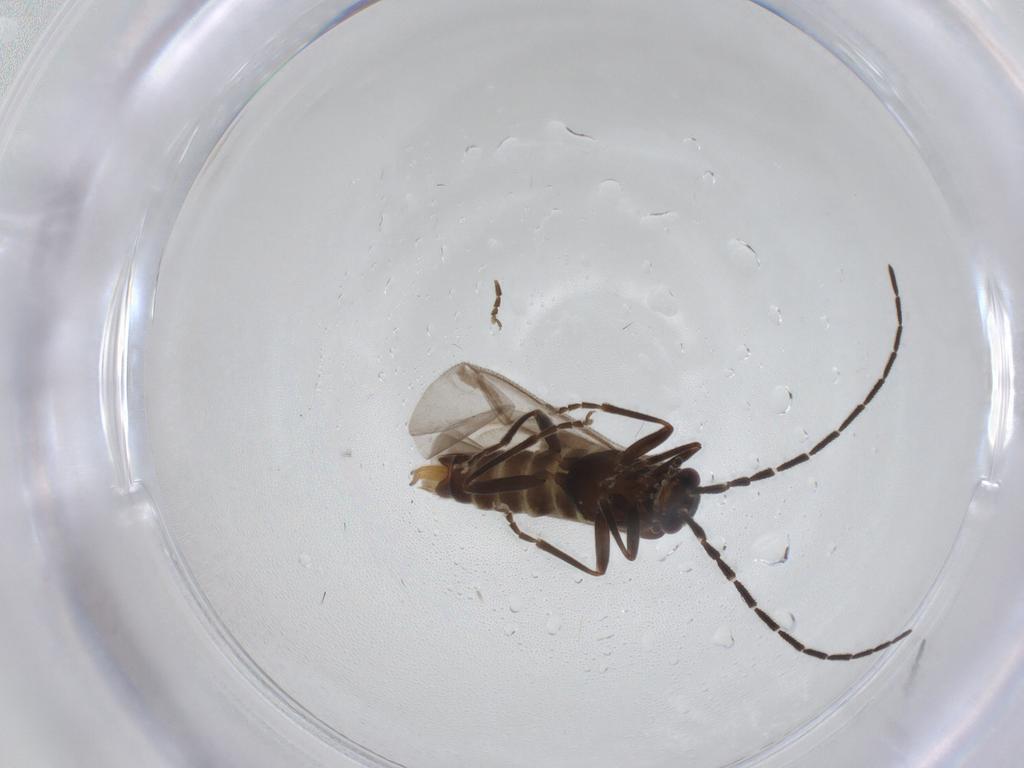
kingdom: Animalia
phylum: Arthropoda
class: Insecta
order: Coleoptera
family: Cantharidae
